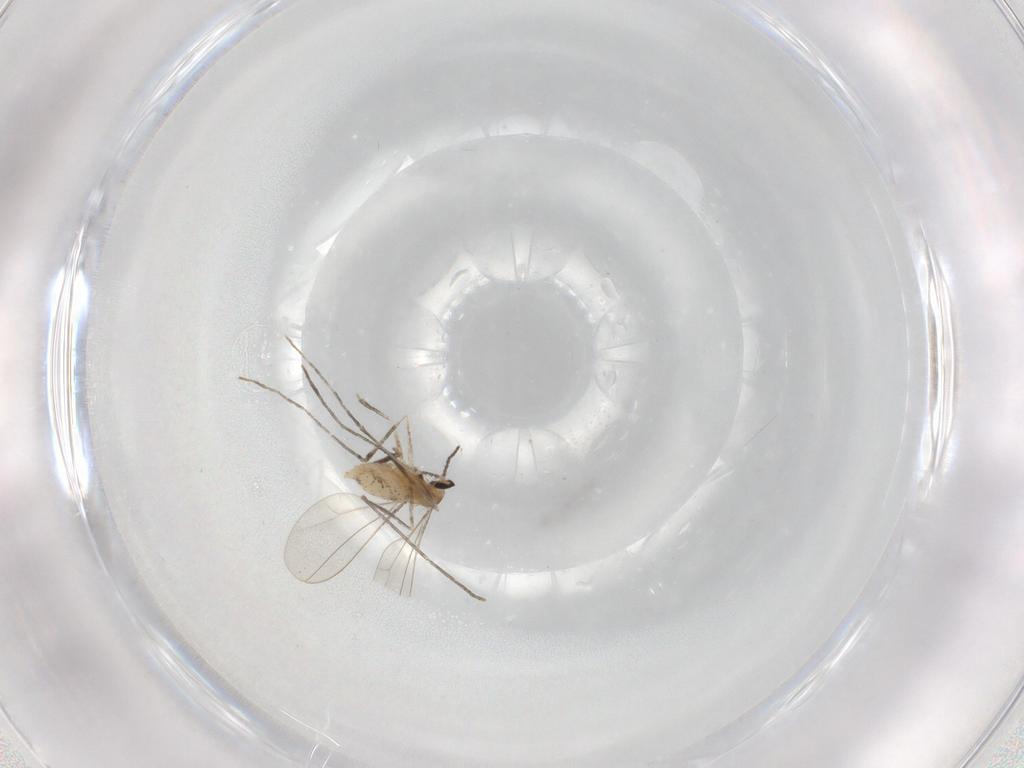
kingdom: Animalia
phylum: Arthropoda
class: Insecta
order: Diptera
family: Cecidomyiidae
